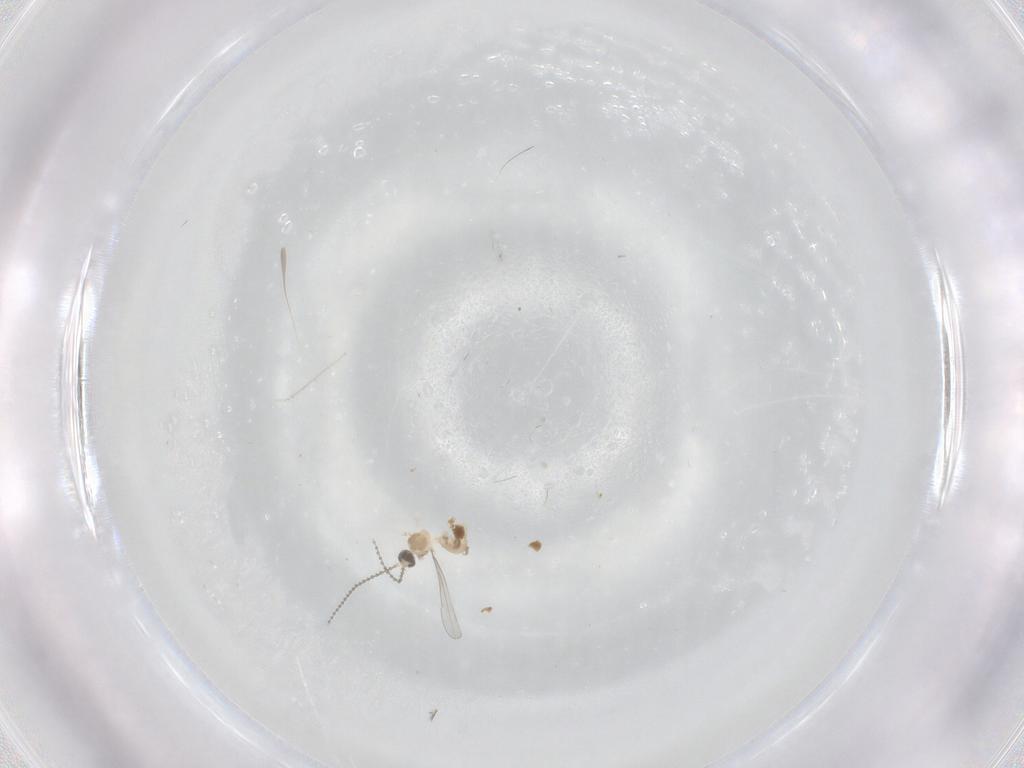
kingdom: Animalia
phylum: Arthropoda
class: Insecta
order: Diptera
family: Cecidomyiidae
